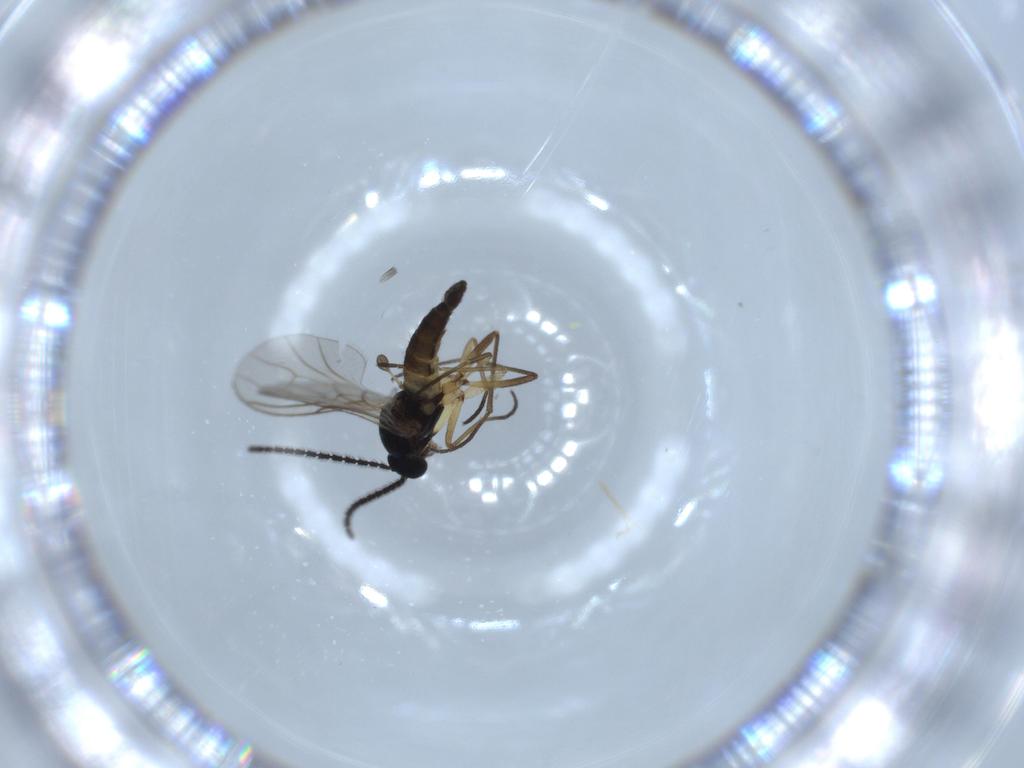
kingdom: Animalia
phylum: Arthropoda
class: Insecta
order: Diptera
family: Sciaridae
